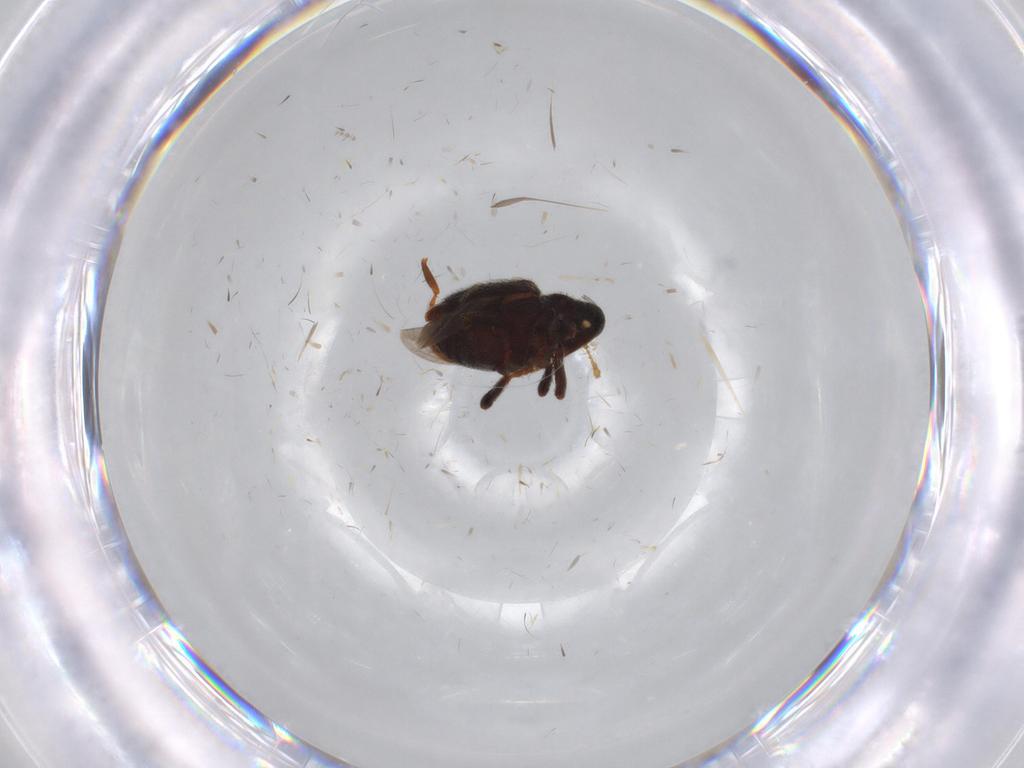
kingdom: Animalia
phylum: Arthropoda
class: Insecta
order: Coleoptera
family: Curculionidae
